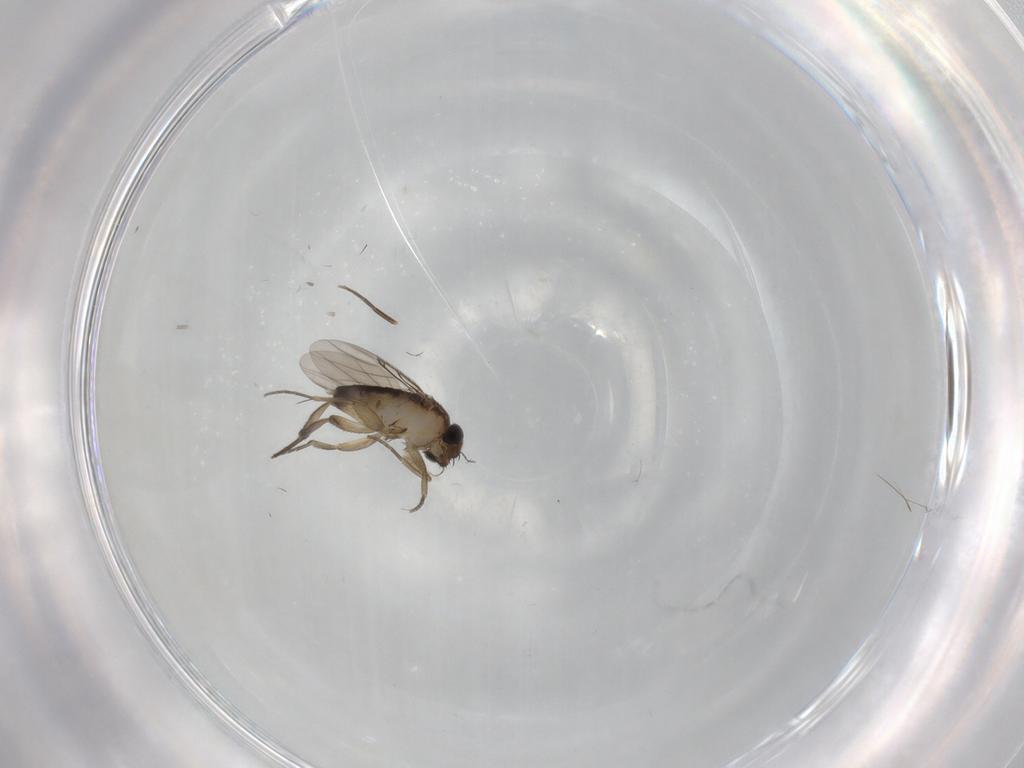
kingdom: Animalia
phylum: Arthropoda
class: Insecta
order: Diptera
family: Phoridae
